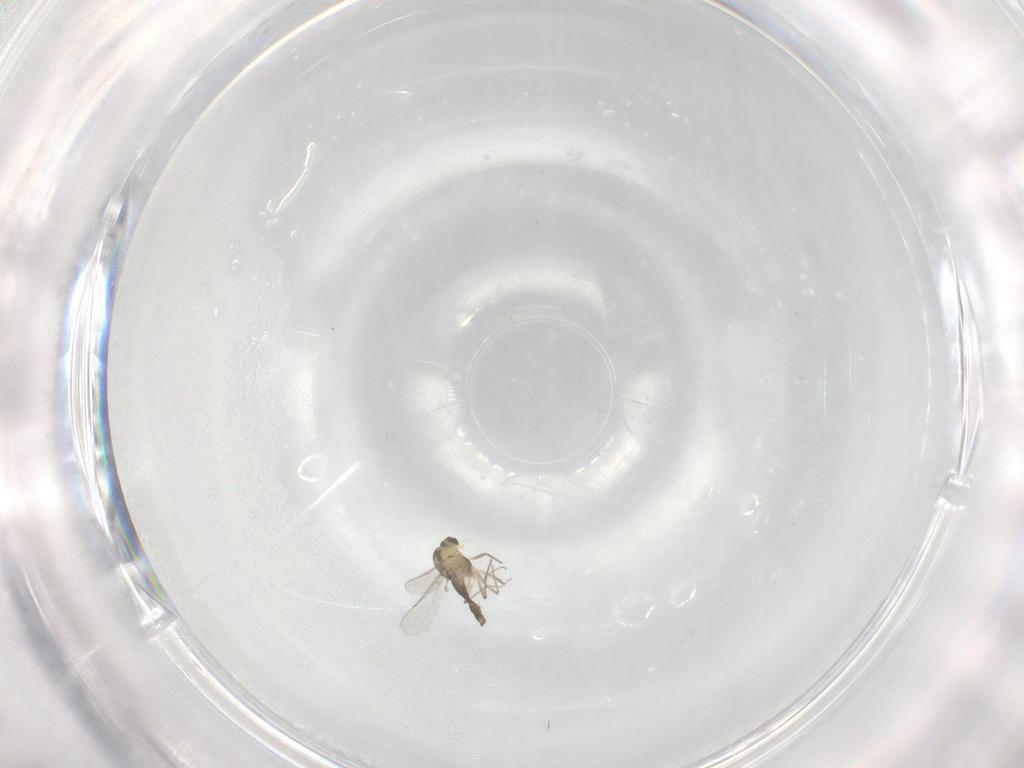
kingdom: Animalia
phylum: Arthropoda
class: Insecta
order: Diptera
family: Chironomidae
